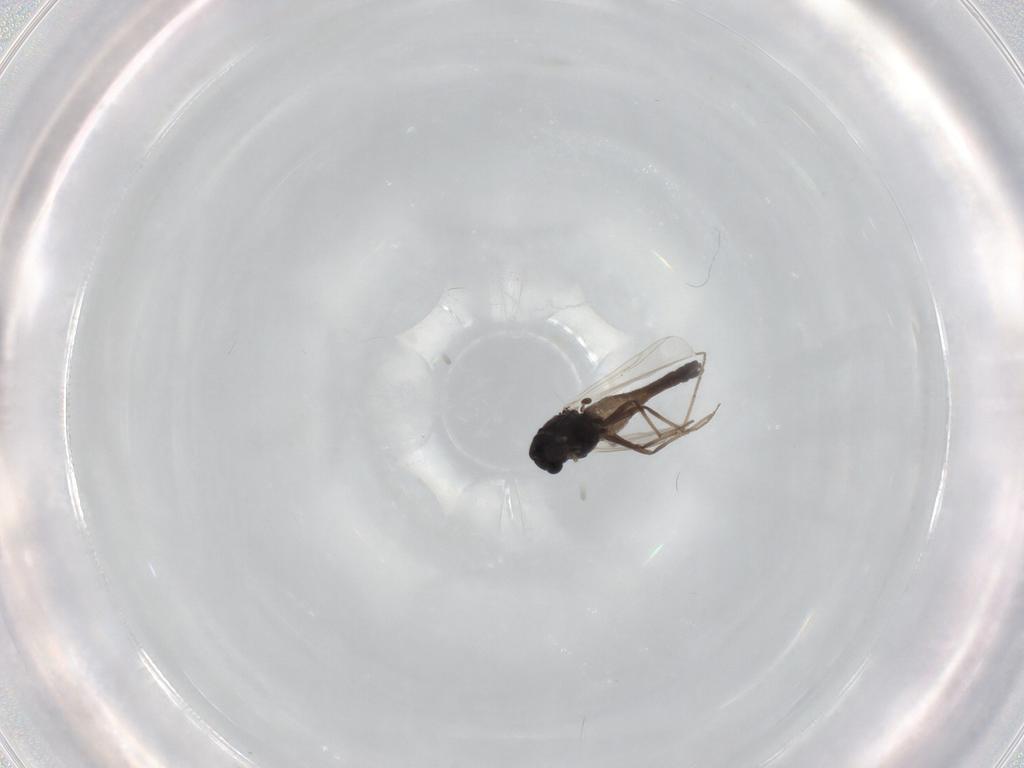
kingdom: Animalia
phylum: Arthropoda
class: Insecta
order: Diptera
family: Chironomidae
